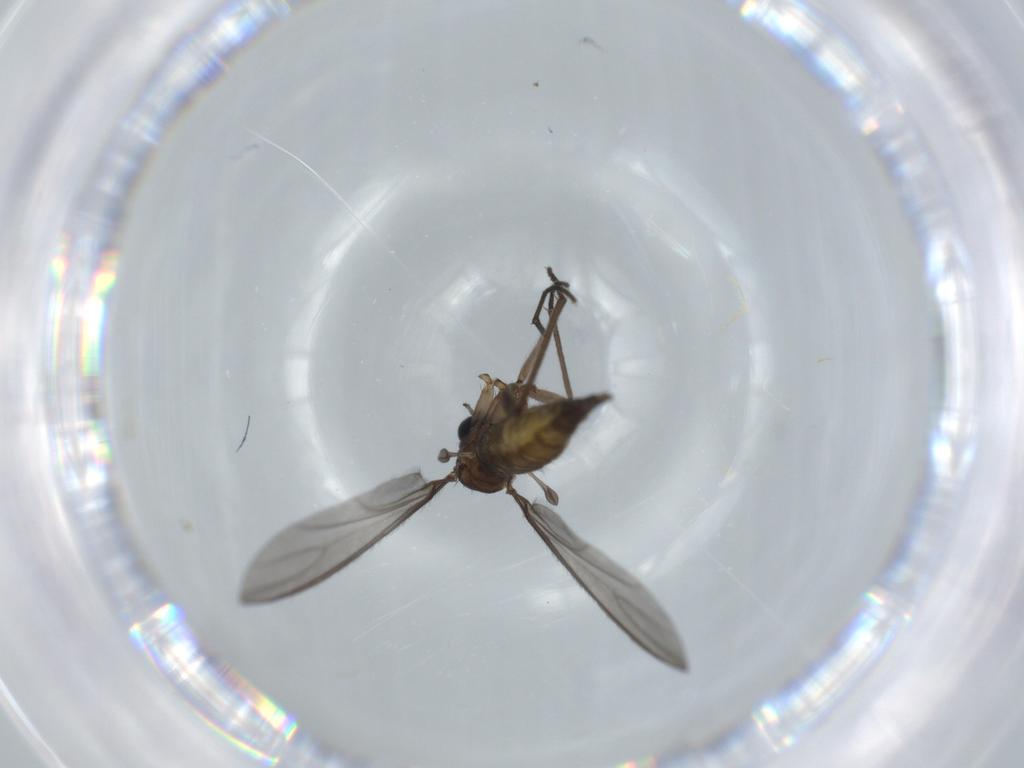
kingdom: Animalia
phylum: Arthropoda
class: Insecta
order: Diptera
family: Sciaridae
